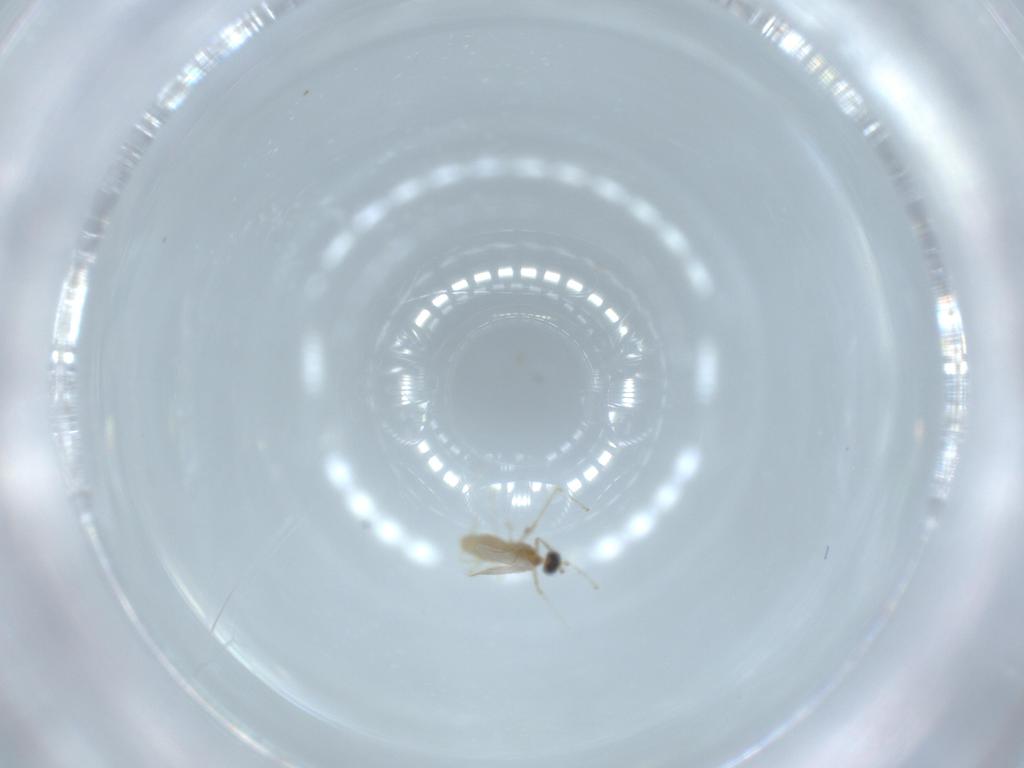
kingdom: Animalia
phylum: Arthropoda
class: Insecta
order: Diptera
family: Cecidomyiidae
